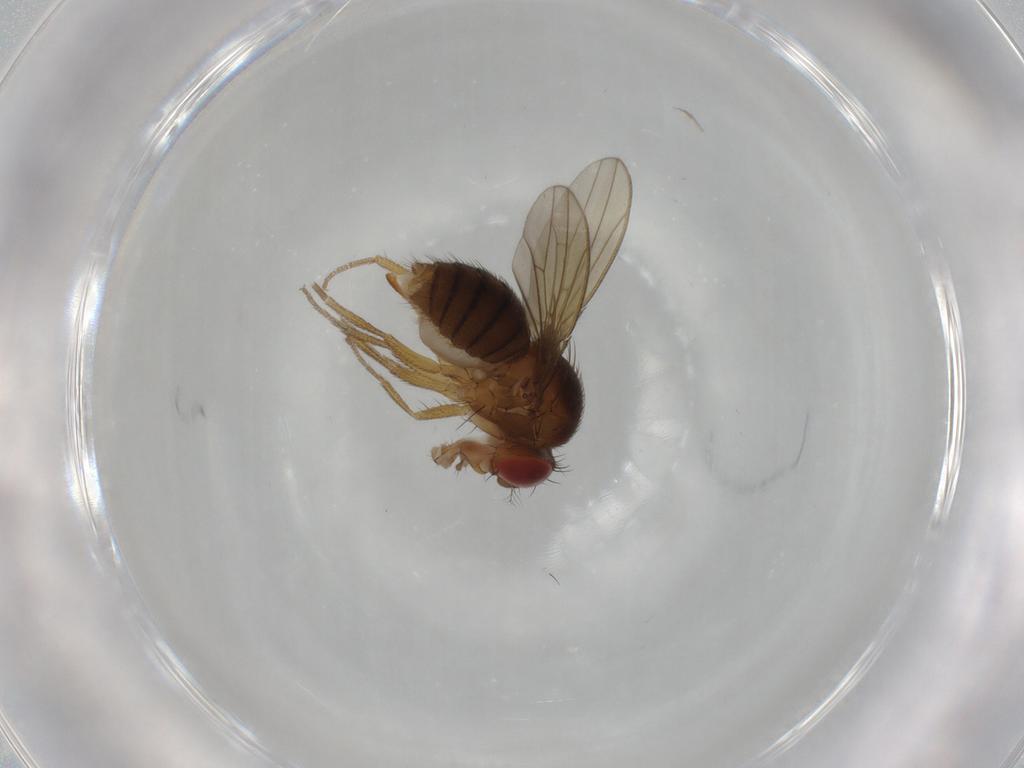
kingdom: Animalia
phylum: Arthropoda
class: Insecta
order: Diptera
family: Drosophilidae
